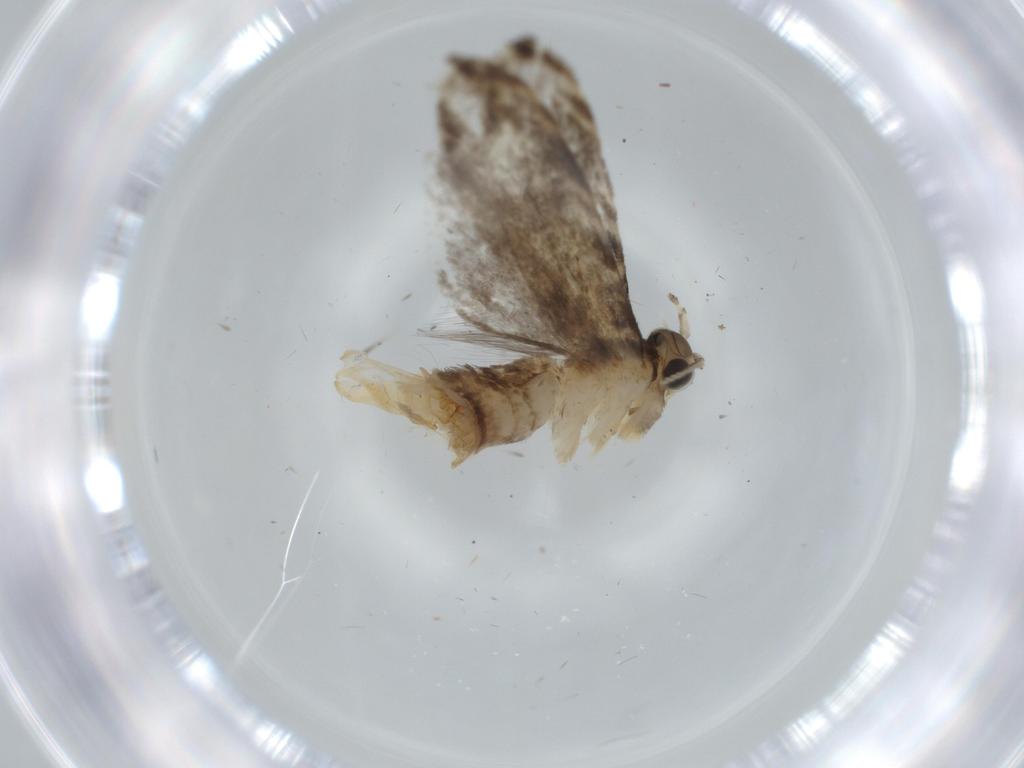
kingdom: Animalia
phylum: Arthropoda
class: Insecta
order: Lepidoptera
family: Tineidae
